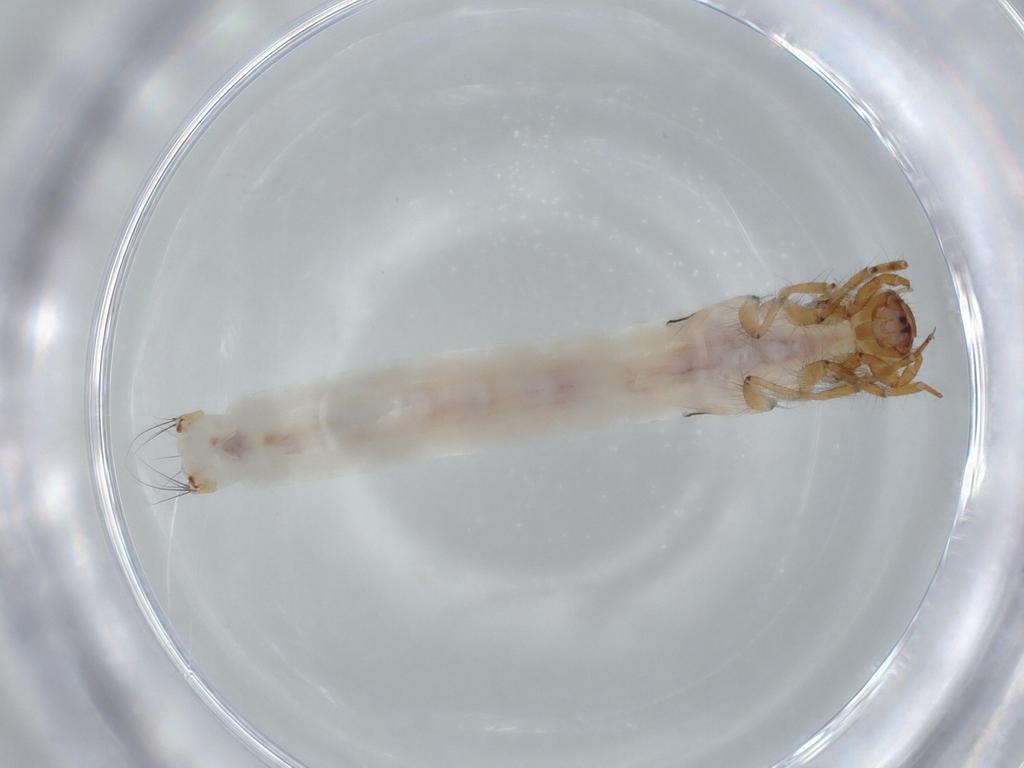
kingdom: Animalia
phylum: Arthropoda
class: Insecta
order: Trichoptera
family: Leptoceridae
